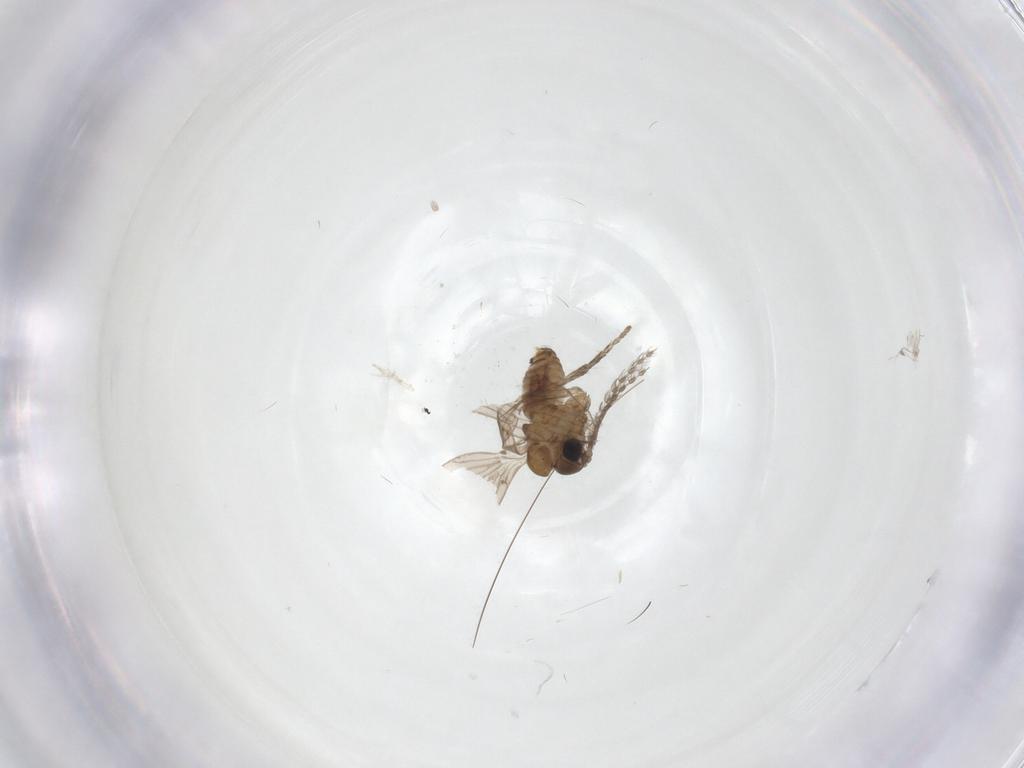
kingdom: Animalia
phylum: Arthropoda
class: Insecta
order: Diptera
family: Psychodidae
